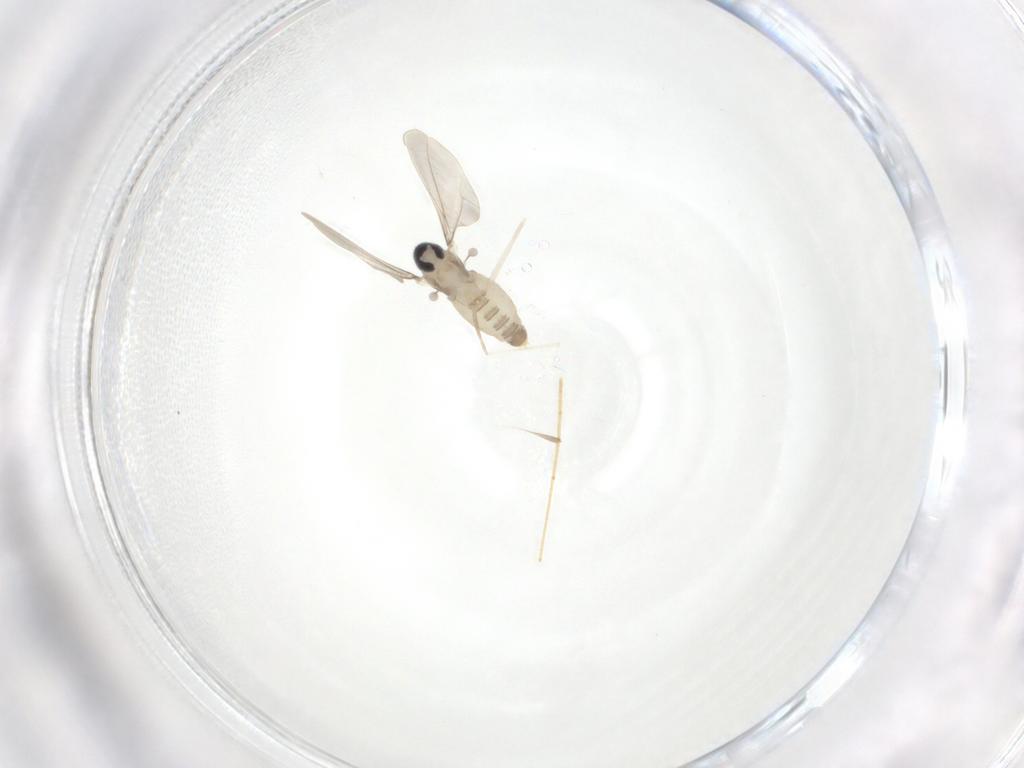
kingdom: Animalia
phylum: Arthropoda
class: Insecta
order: Diptera
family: Cecidomyiidae
